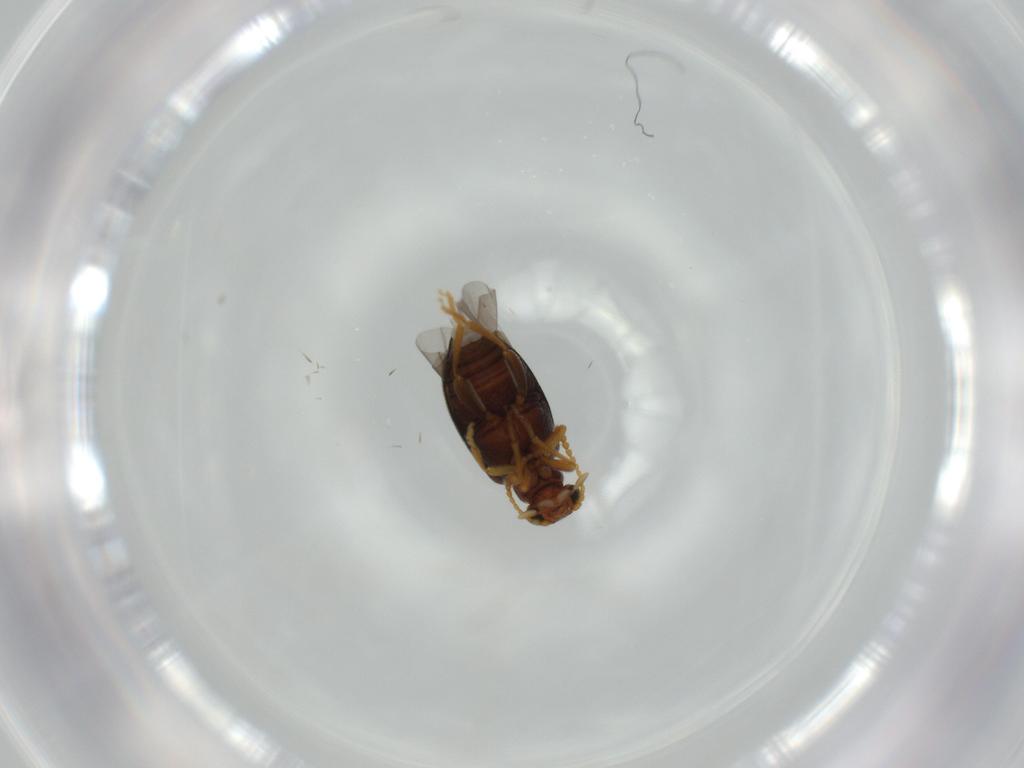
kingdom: Animalia
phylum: Arthropoda
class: Insecta
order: Coleoptera
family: Aderidae
